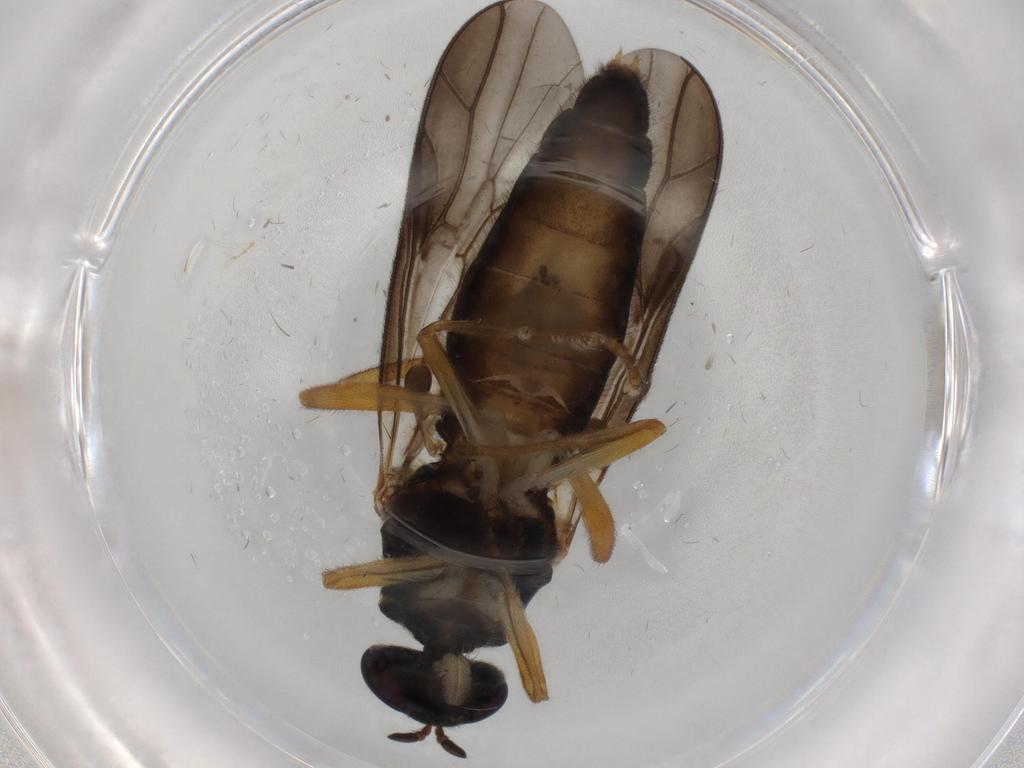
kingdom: Animalia
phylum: Arthropoda
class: Insecta
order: Diptera
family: Stratiomyidae
